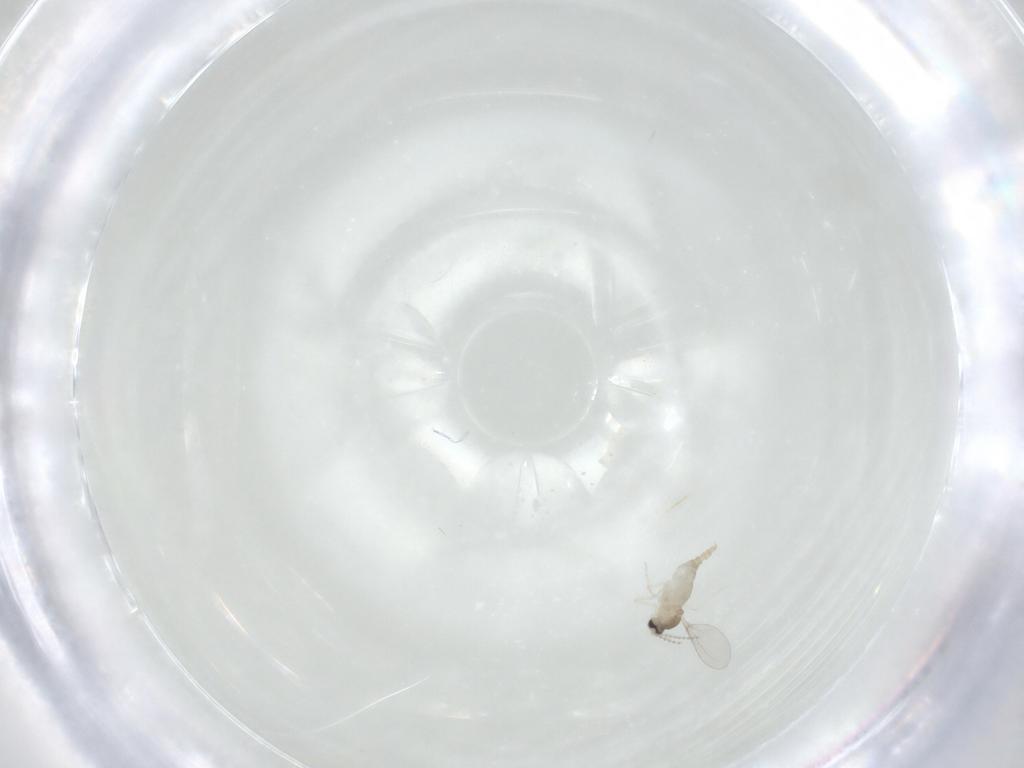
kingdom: Animalia
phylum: Arthropoda
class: Insecta
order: Diptera
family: Cecidomyiidae
